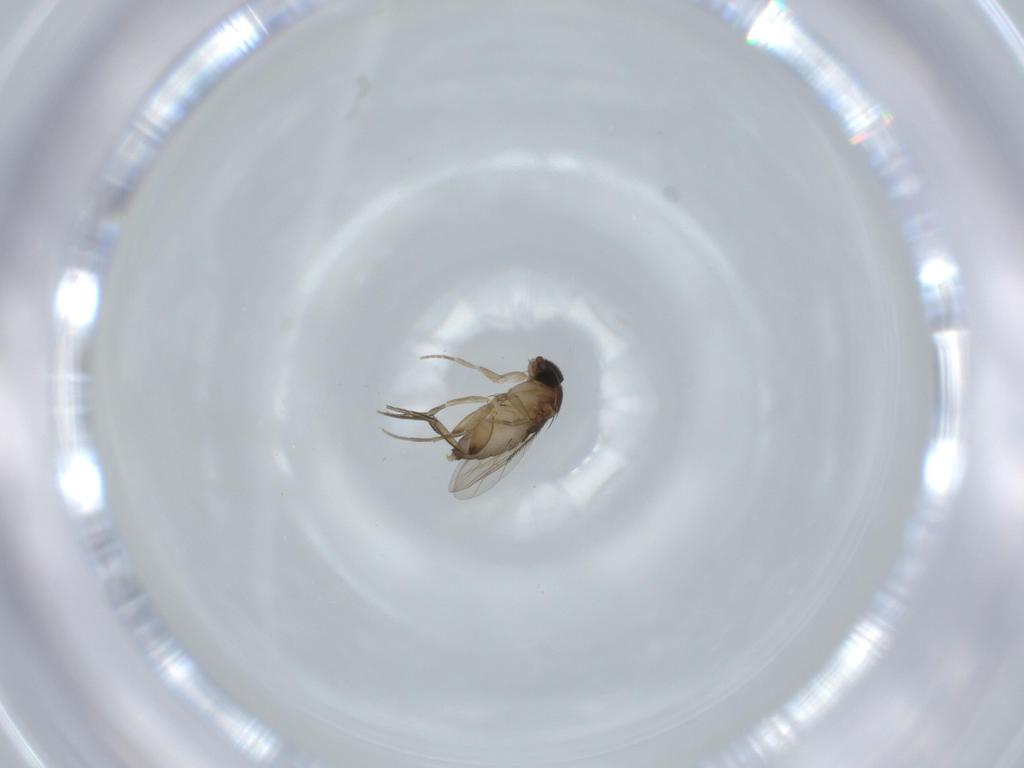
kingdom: Animalia
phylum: Arthropoda
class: Insecta
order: Diptera
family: Phoridae
